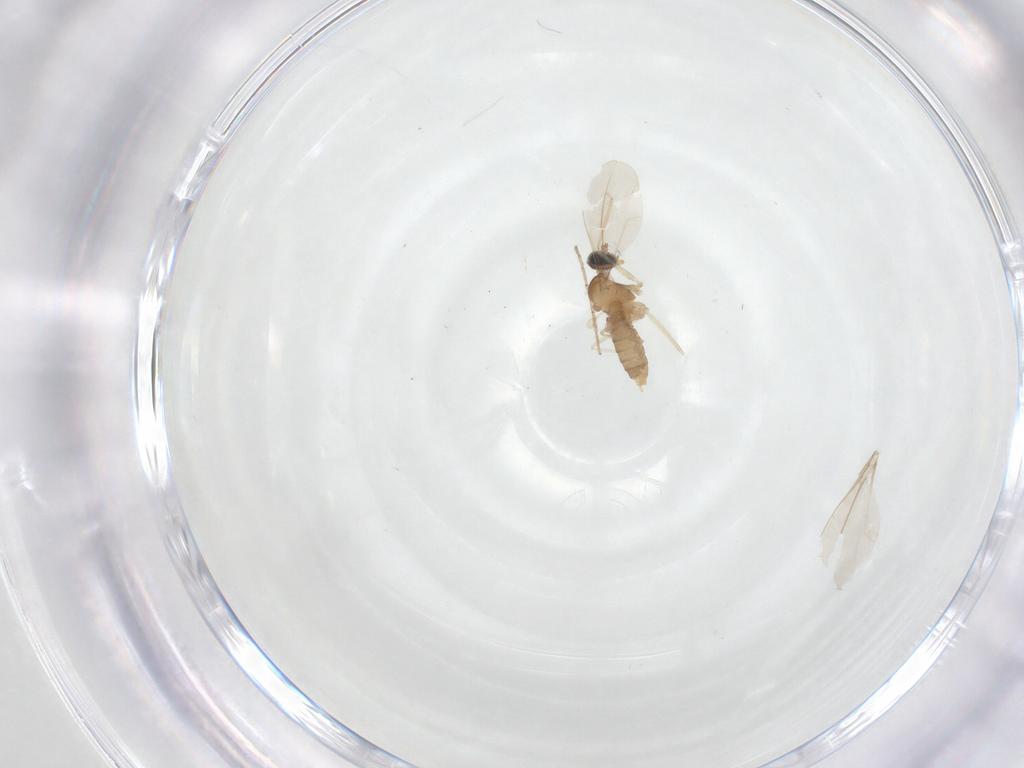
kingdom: Animalia
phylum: Arthropoda
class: Insecta
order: Diptera
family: Cecidomyiidae
